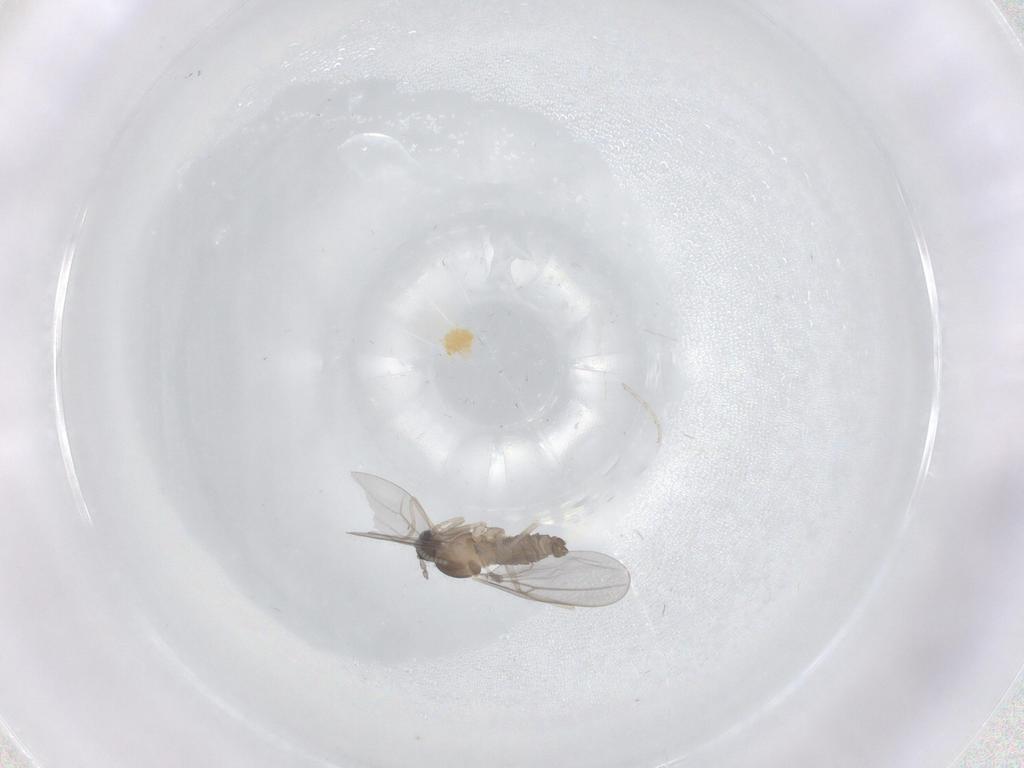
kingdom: Animalia
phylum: Arthropoda
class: Insecta
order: Diptera
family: Cecidomyiidae
